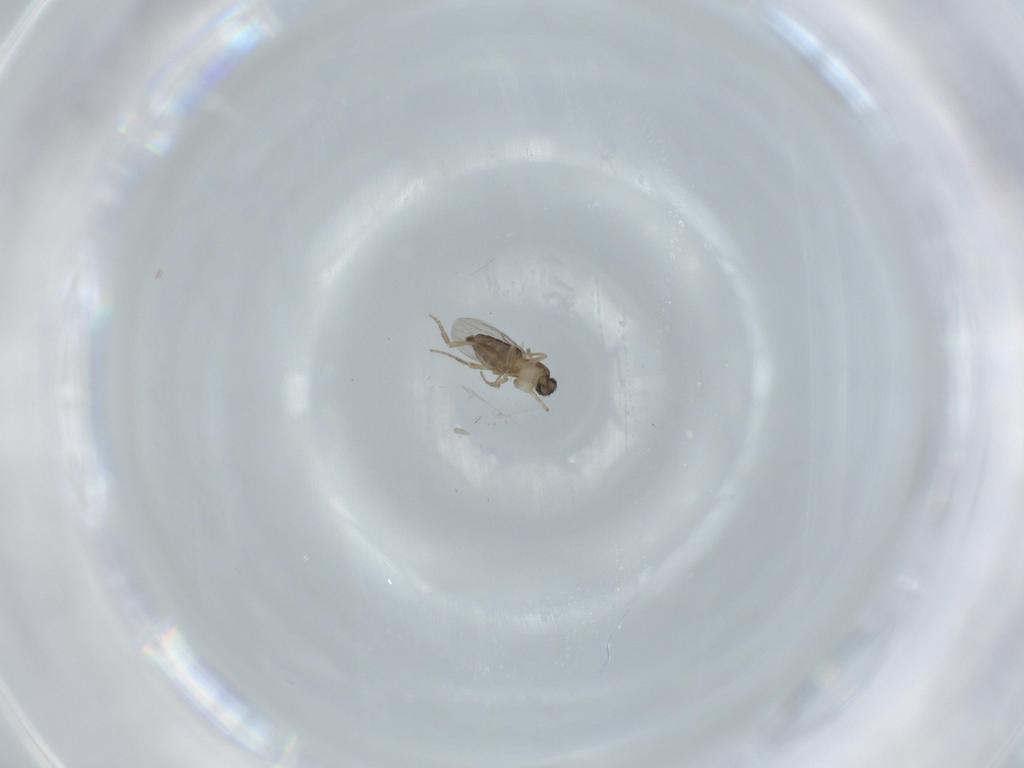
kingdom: Animalia
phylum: Arthropoda
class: Insecta
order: Diptera
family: Phoridae
